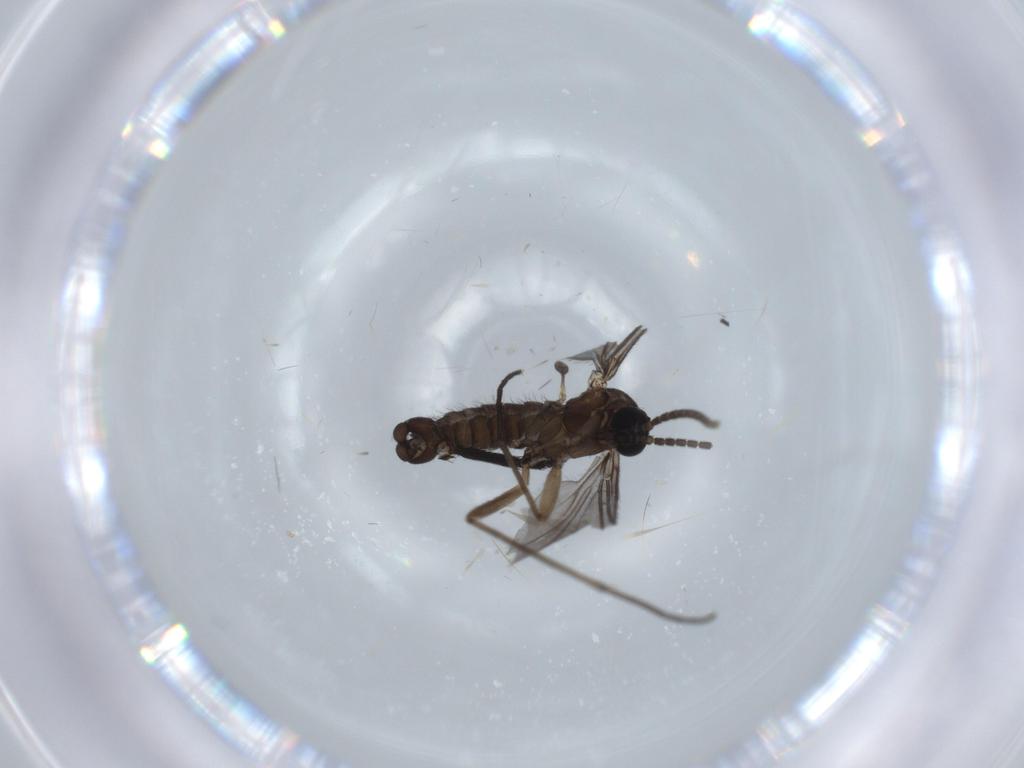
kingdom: Animalia
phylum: Arthropoda
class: Insecta
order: Diptera
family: Sciaridae
